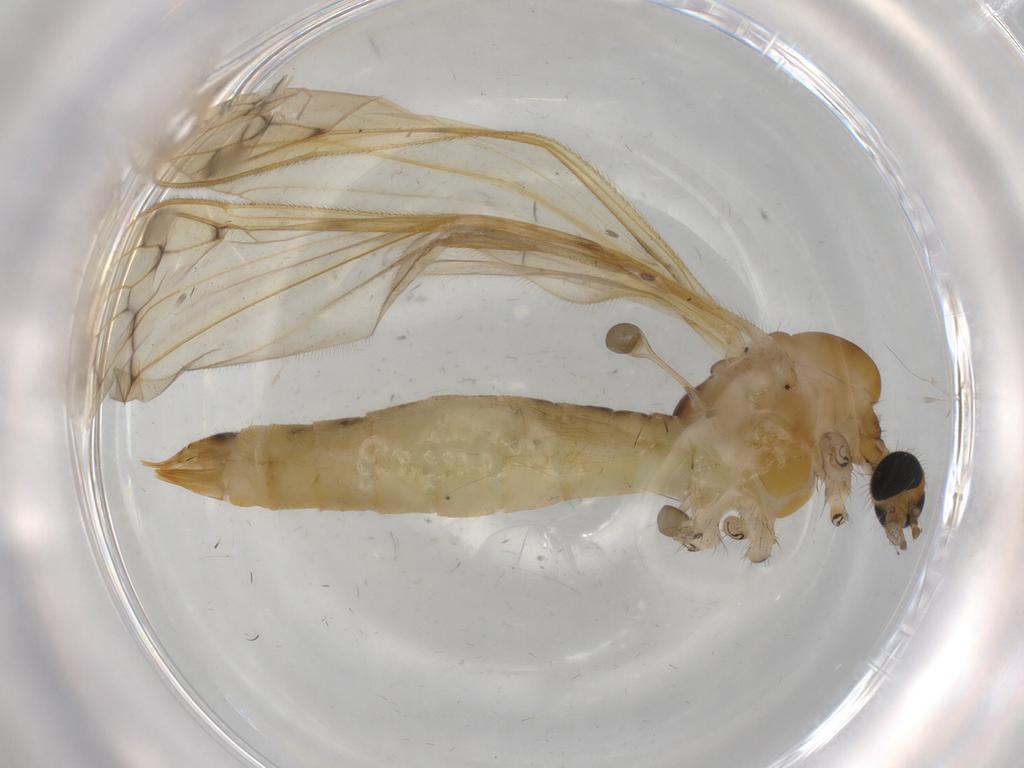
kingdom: Animalia
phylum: Arthropoda
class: Insecta
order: Diptera
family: Limoniidae
